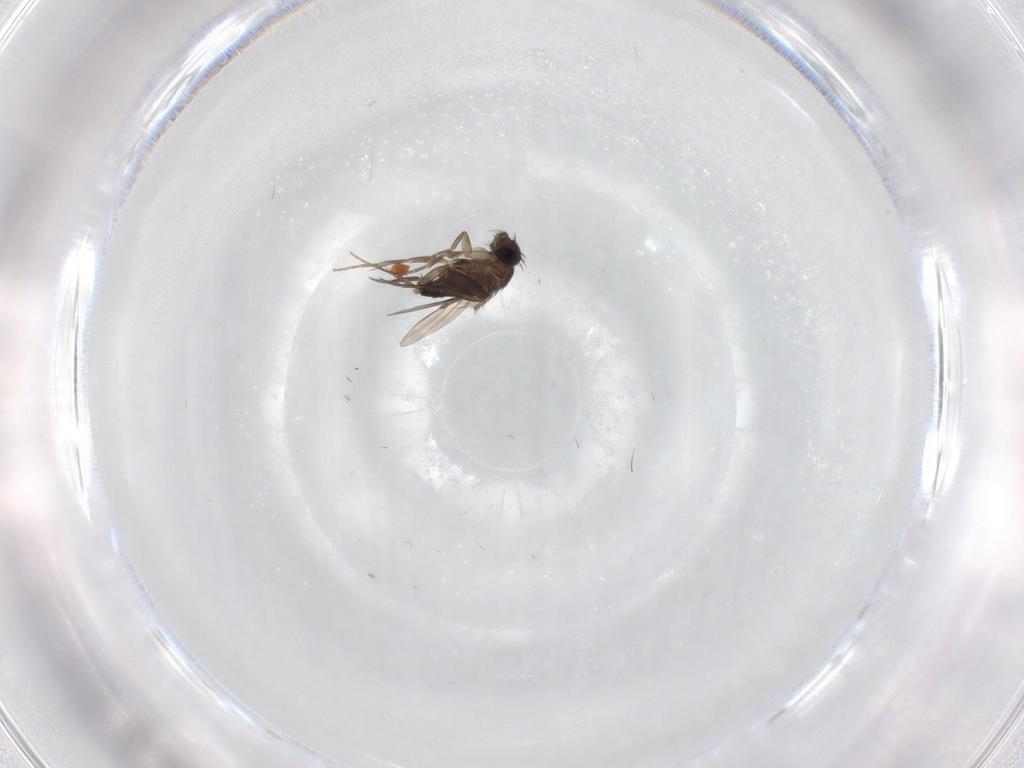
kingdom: Animalia
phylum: Arthropoda
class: Insecta
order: Diptera
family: Phoridae
